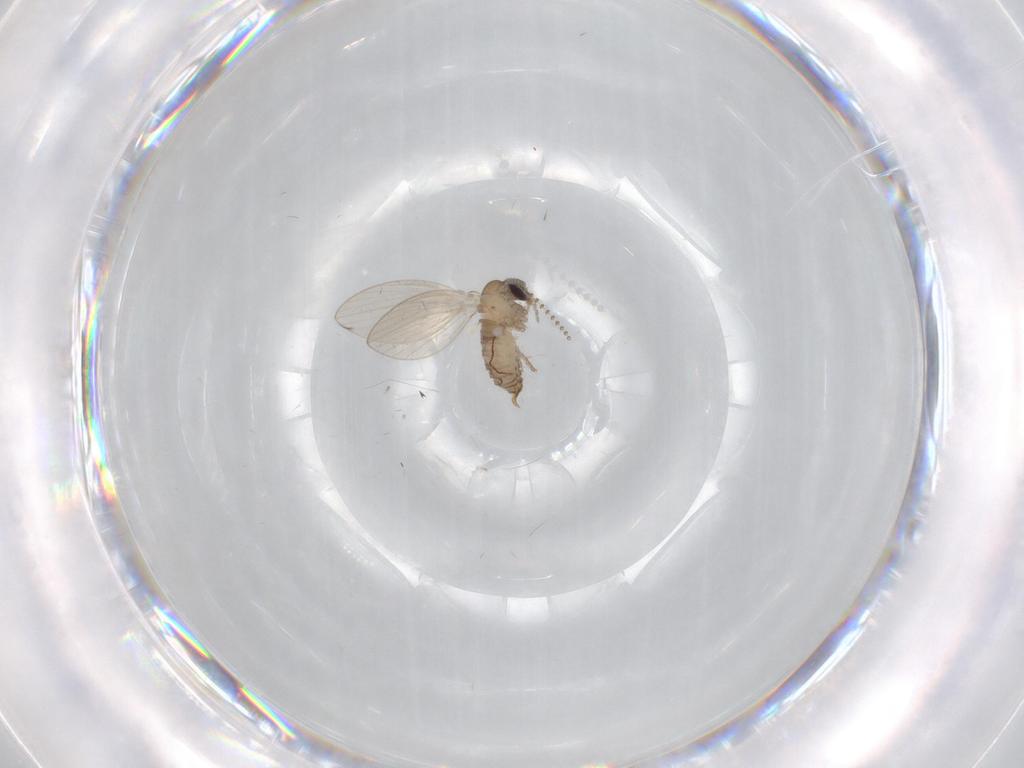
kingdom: Animalia
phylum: Arthropoda
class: Insecta
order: Diptera
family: Psychodidae
